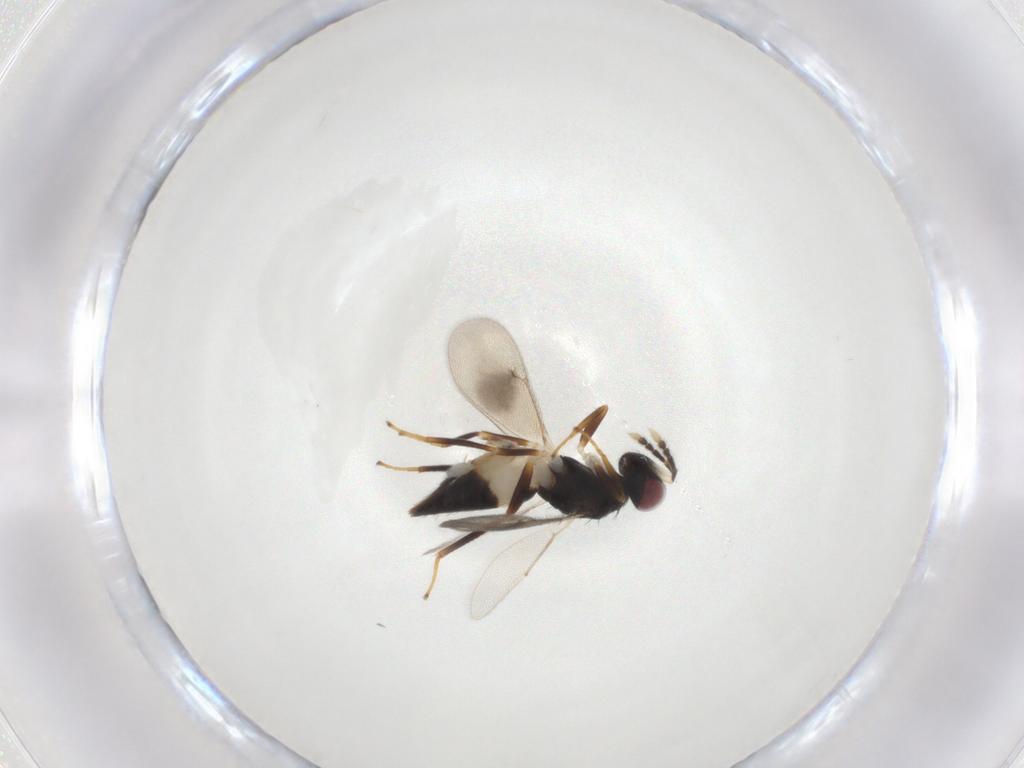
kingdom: Animalia
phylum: Arthropoda
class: Insecta
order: Hymenoptera
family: Eulophidae
